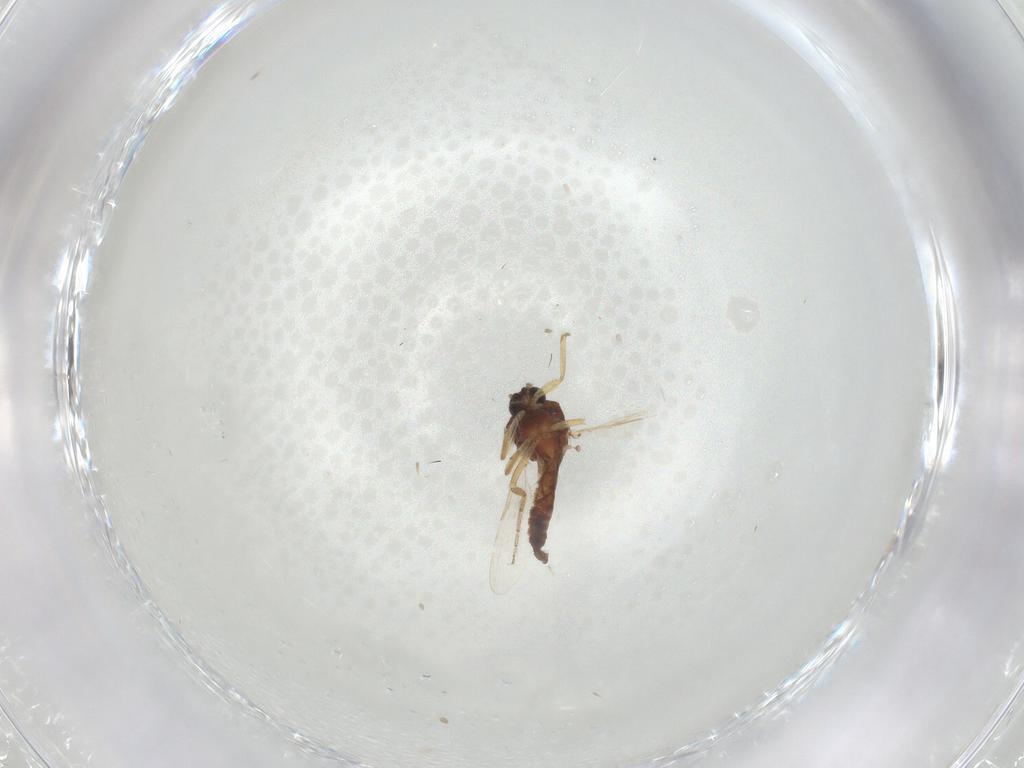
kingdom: Animalia
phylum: Arthropoda
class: Insecta
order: Diptera
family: Ceratopogonidae
